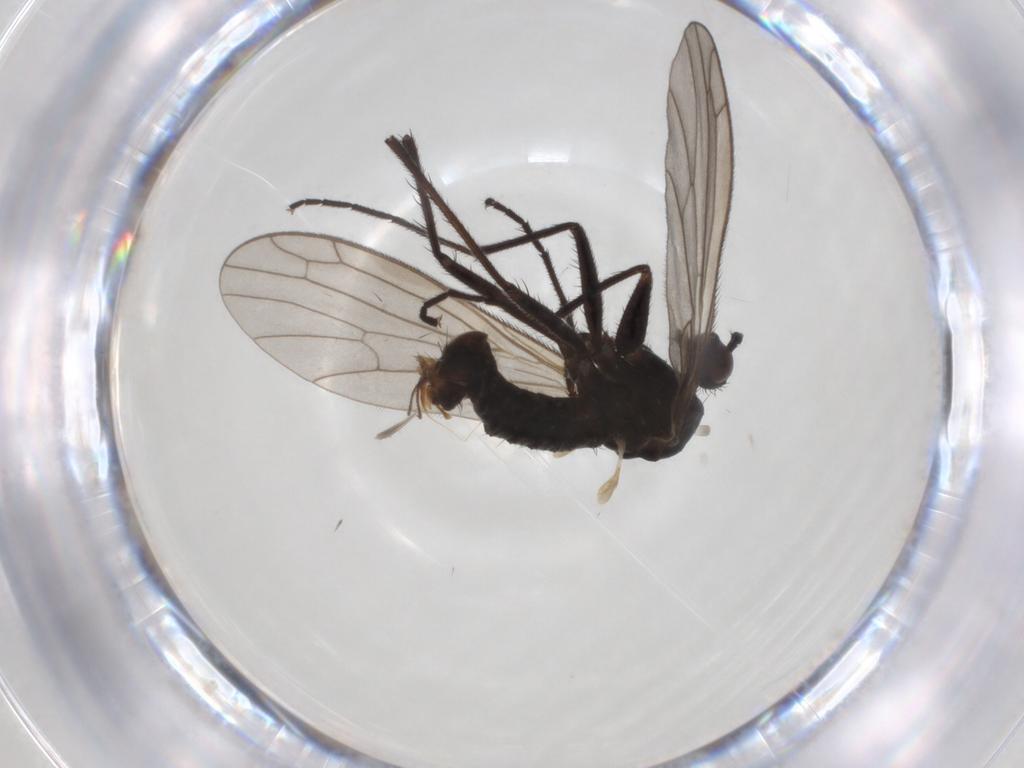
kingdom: Animalia
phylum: Arthropoda
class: Insecta
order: Diptera
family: Empididae
